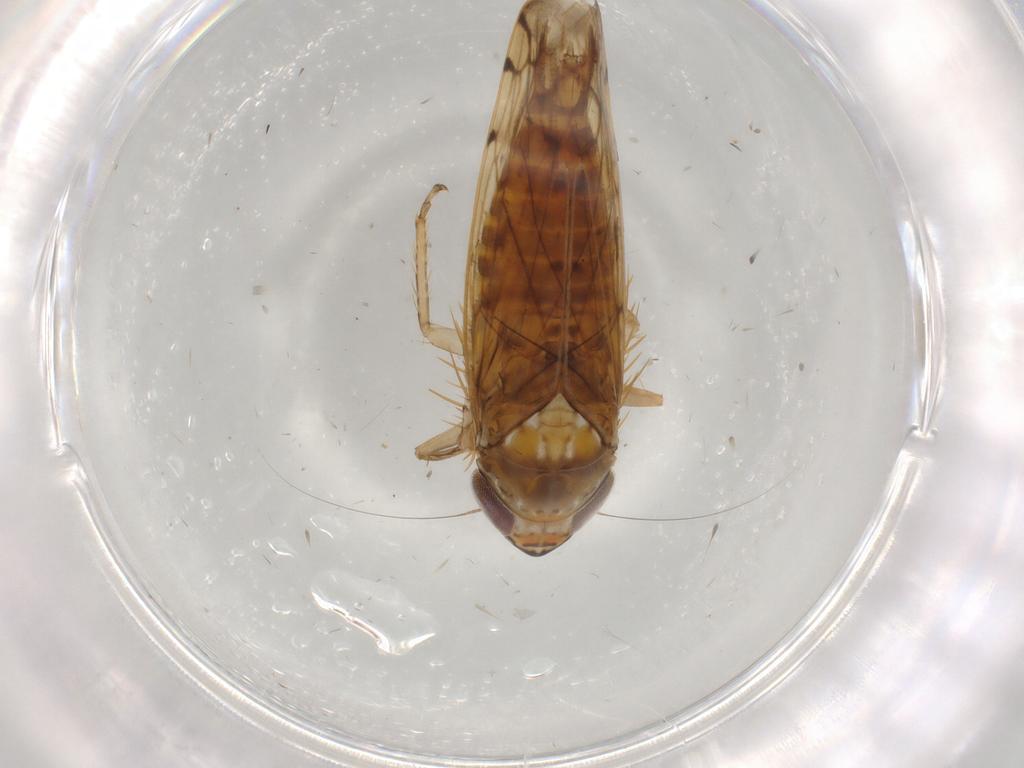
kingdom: Animalia
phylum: Arthropoda
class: Insecta
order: Hemiptera
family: Cicadellidae
